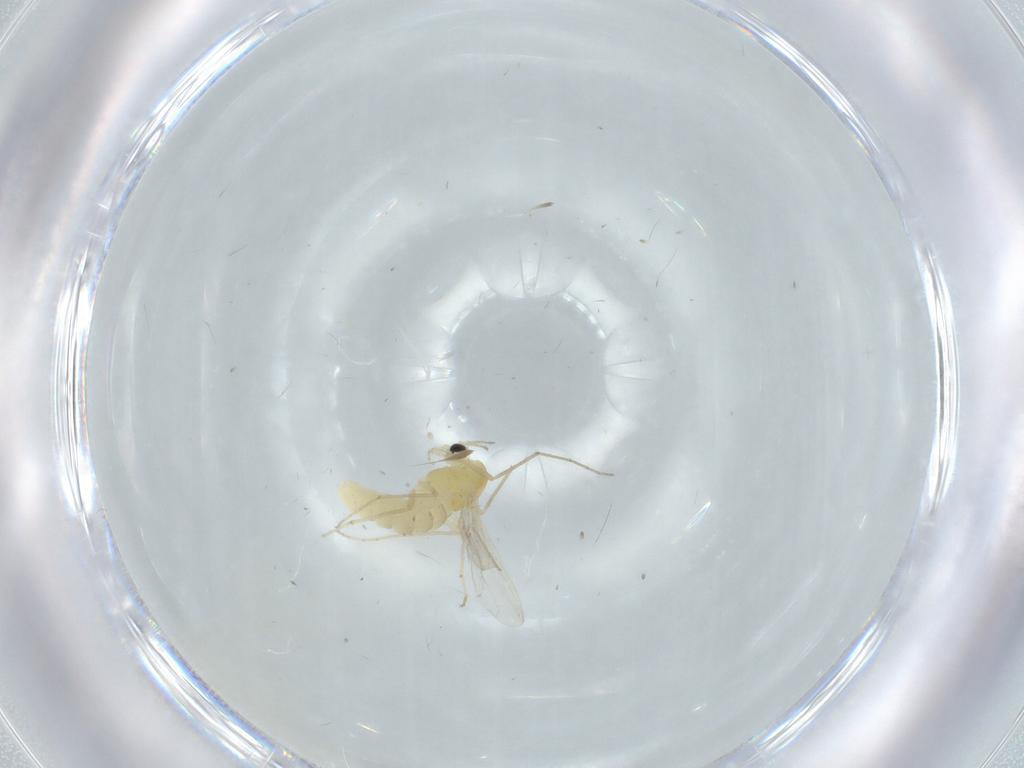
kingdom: Animalia
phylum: Arthropoda
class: Insecta
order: Diptera
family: Chironomidae
